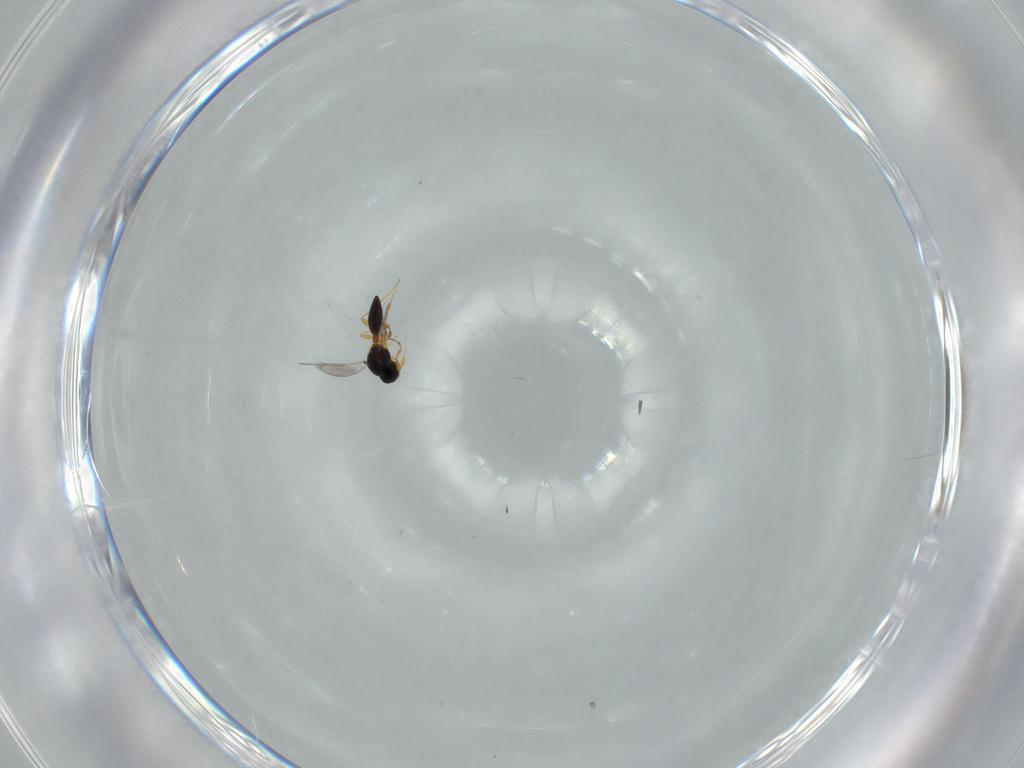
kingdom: Animalia
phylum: Arthropoda
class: Insecta
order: Hymenoptera
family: Platygastridae
